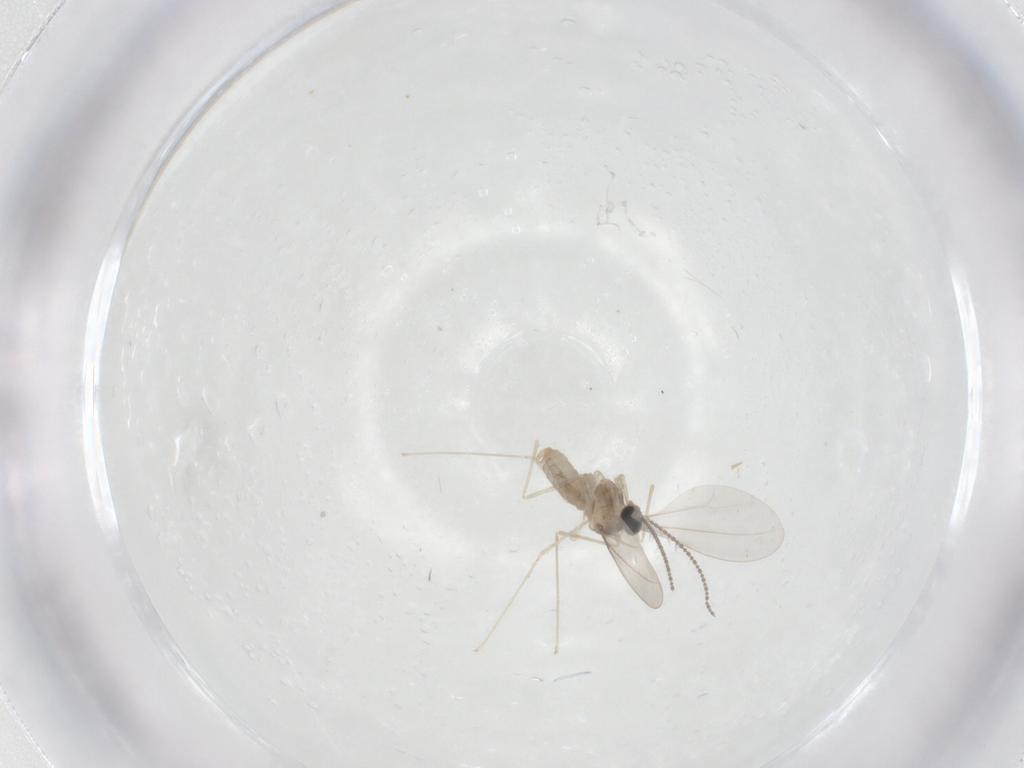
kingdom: Animalia
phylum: Arthropoda
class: Insecta
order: Diptera
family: Cecidomyiidae
